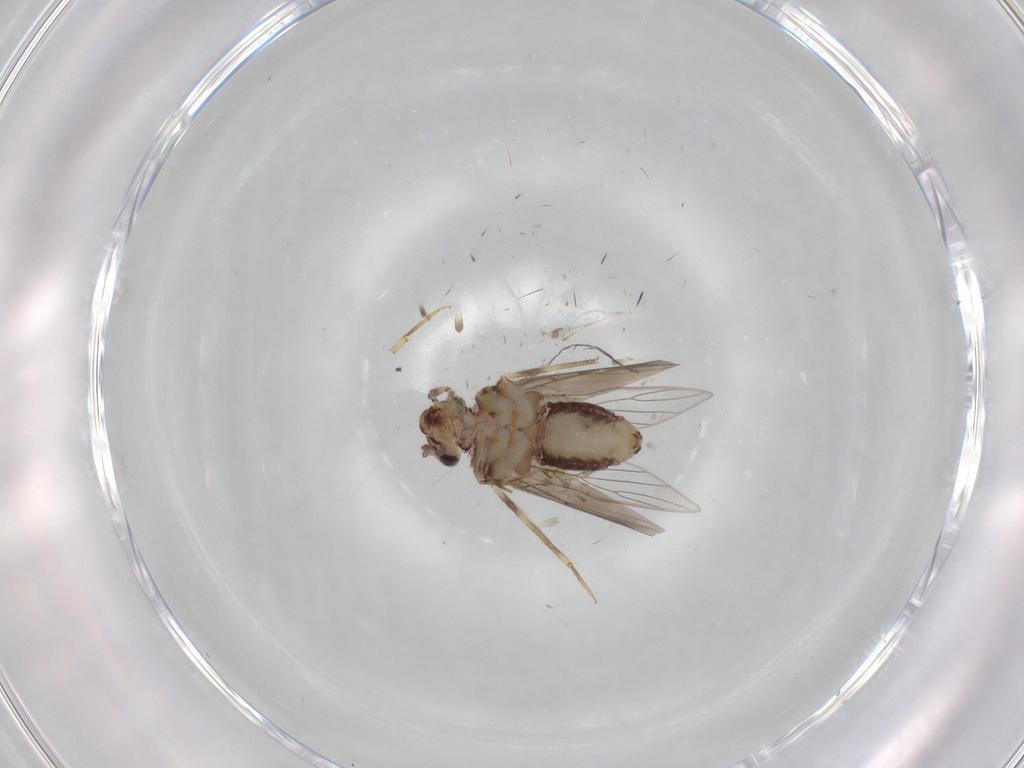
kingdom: Animalia
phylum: Arthropoda
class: Insecta
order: Psocodea
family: Lepidopsocidae
